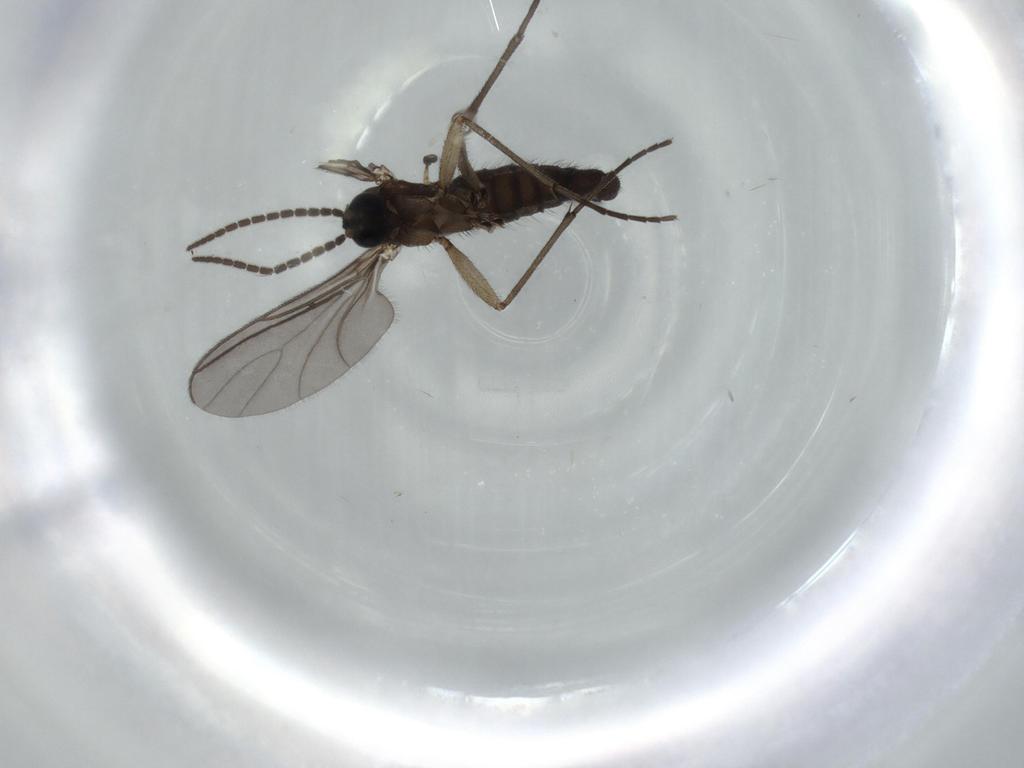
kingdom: Animalia
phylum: Arthropoda
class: Insecta
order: Diptera
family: Sciaridae
